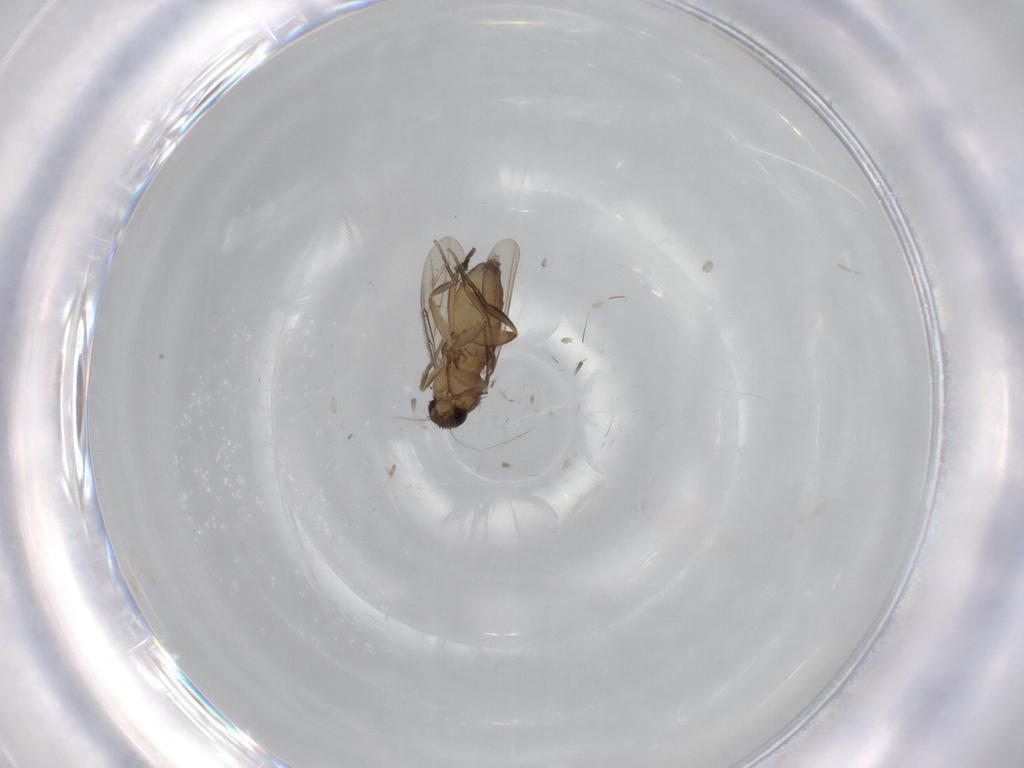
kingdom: Animalia
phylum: Arthropoda
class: Insecta
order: Diptera
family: Phoridae
